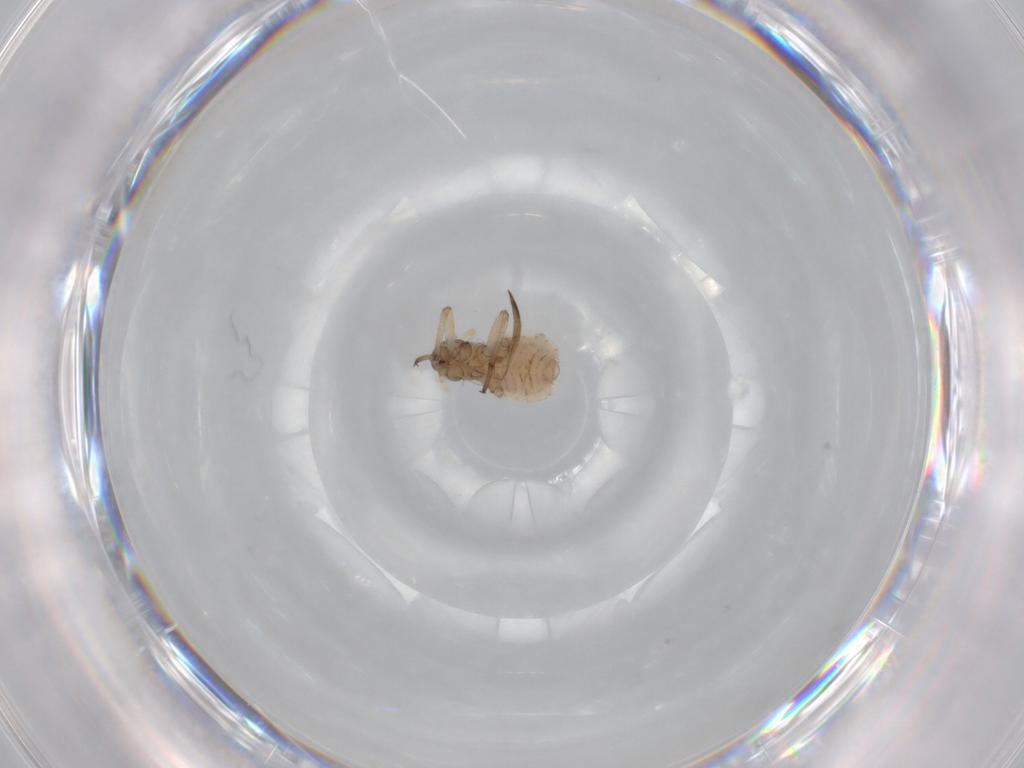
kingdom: Animalia
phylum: Arthropoda
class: Insecta
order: Hemiptera
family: Aphididae
